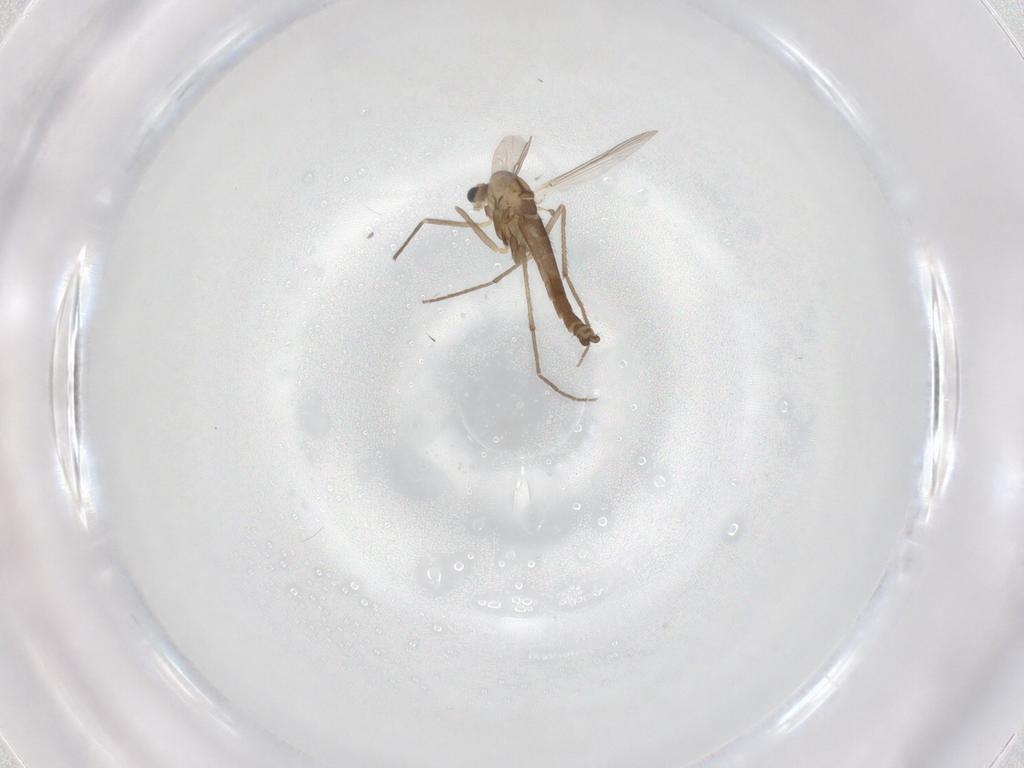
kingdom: Animalia
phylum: Arthropoda
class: Insecta
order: Diptera
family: Chironomidae
